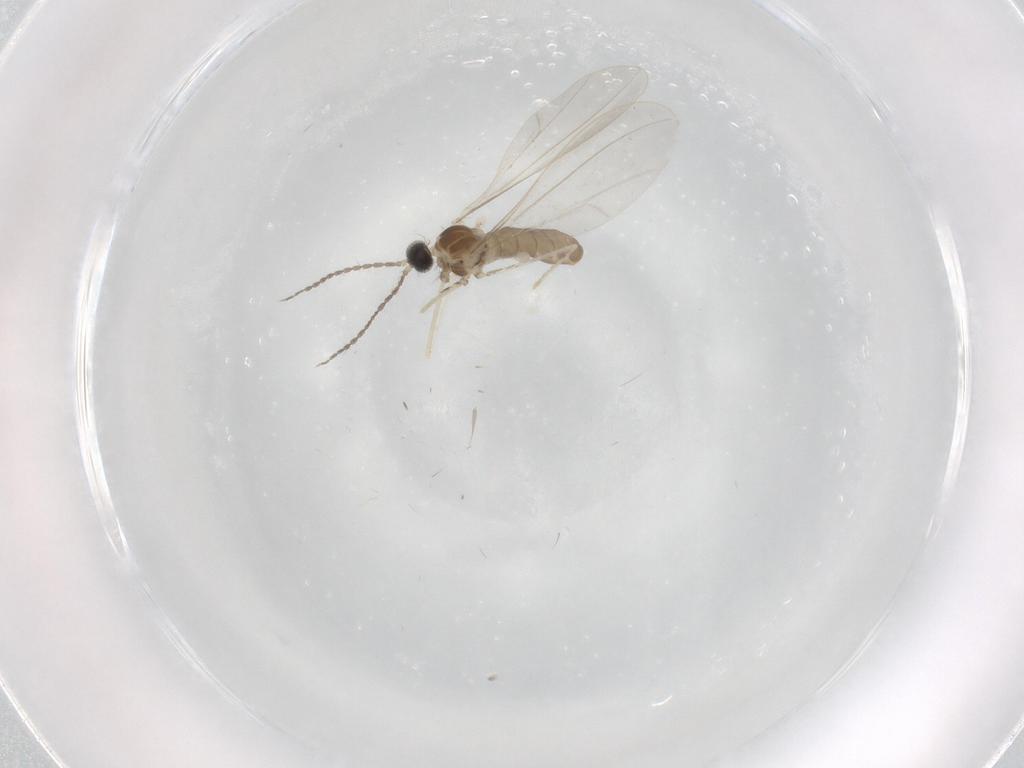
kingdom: Animalia
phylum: Arthropoda
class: Insecta
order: Diptera
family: Cecidomyiidae
